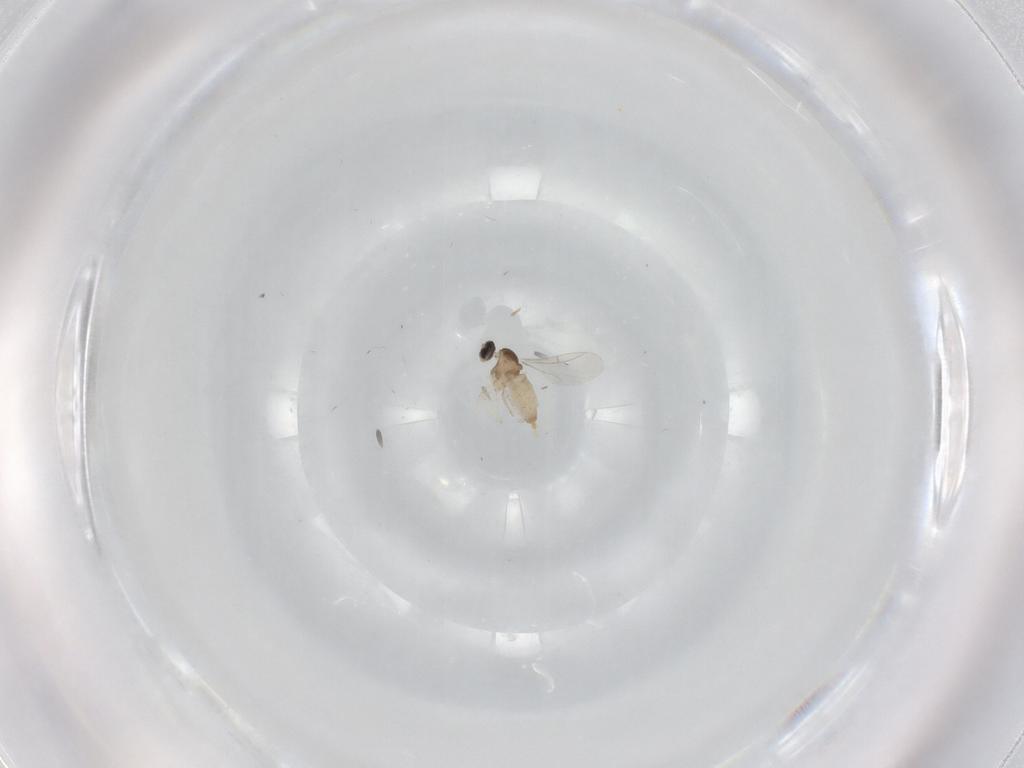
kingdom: Animalia
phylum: Arthropoda
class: Insecta
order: Diptera
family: Cecidomyiidae
